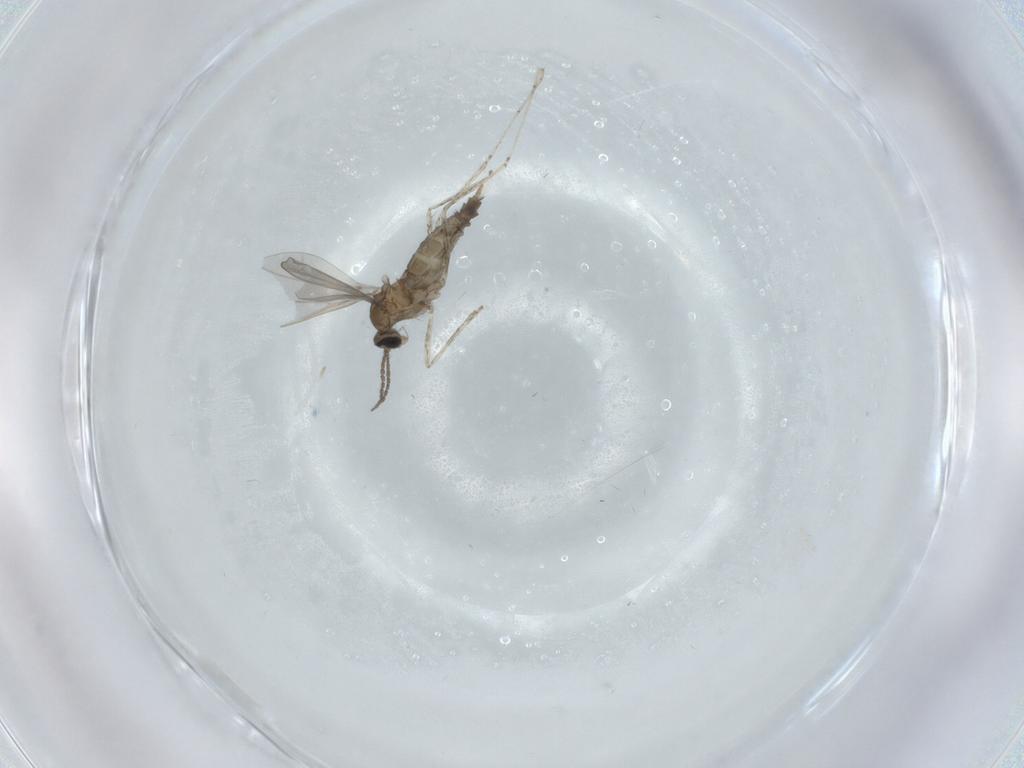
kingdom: Animalia
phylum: Arthropoda
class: Insecta
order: Diptera
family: Cecidomyiidae
